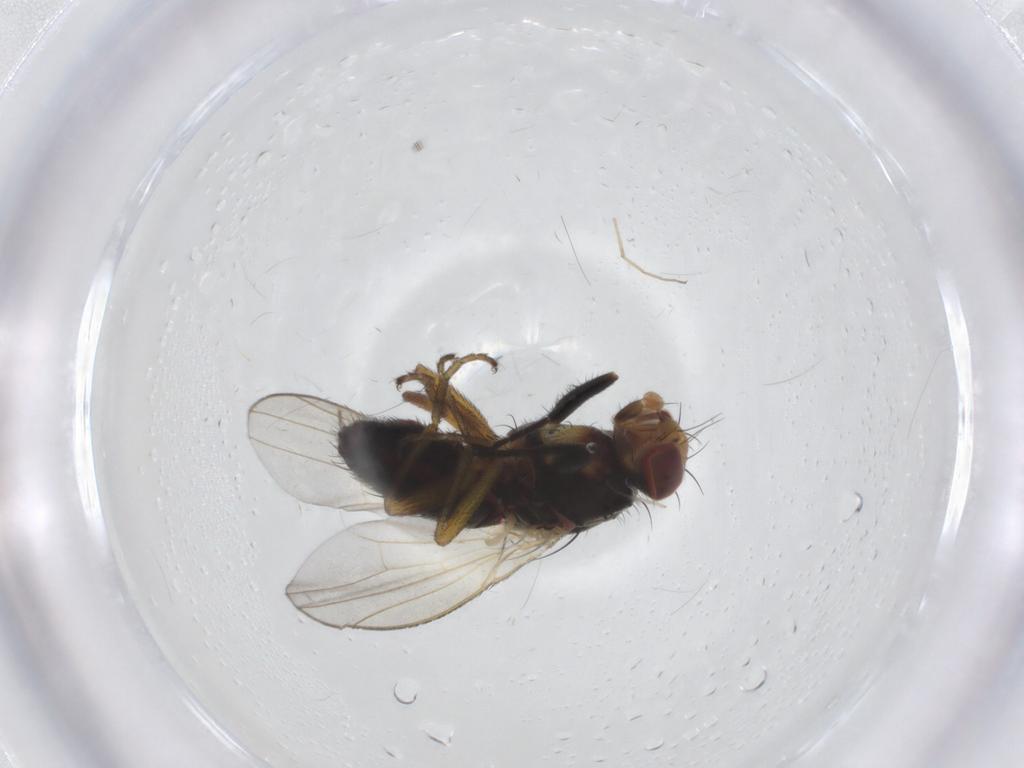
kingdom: Animalia
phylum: Arthropoda
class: Insecta
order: Diptera
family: Heleomyzidae
